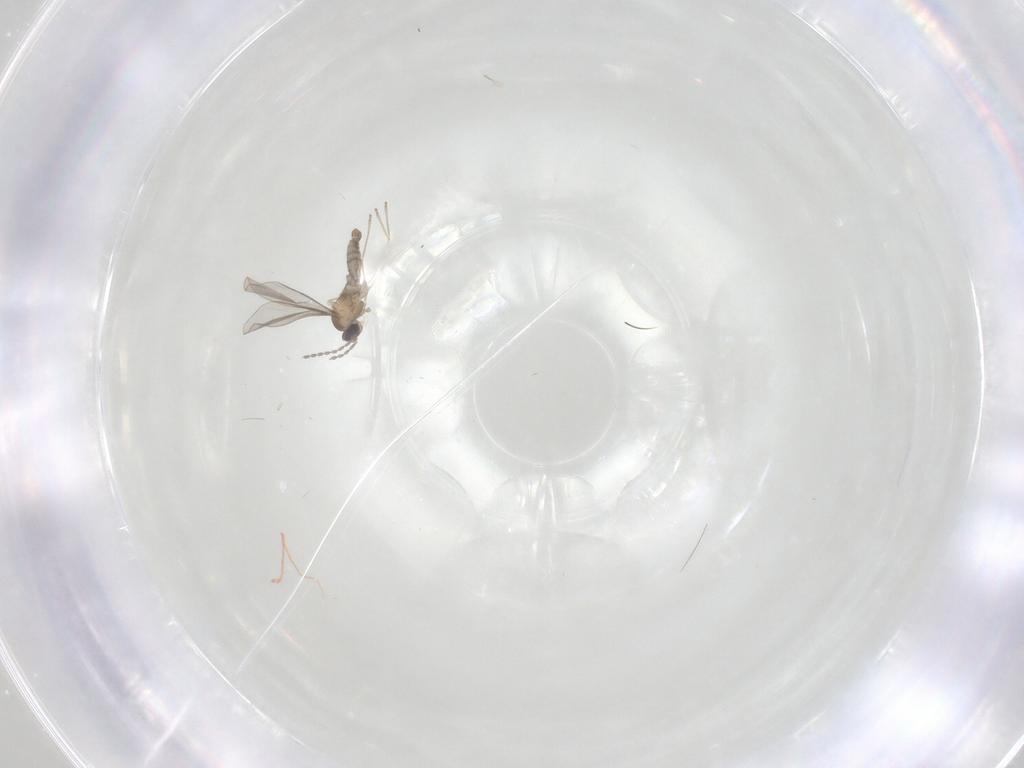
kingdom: Animalia
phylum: Arthropoda
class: Insecta
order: Diptera
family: Cecidomyiidae
